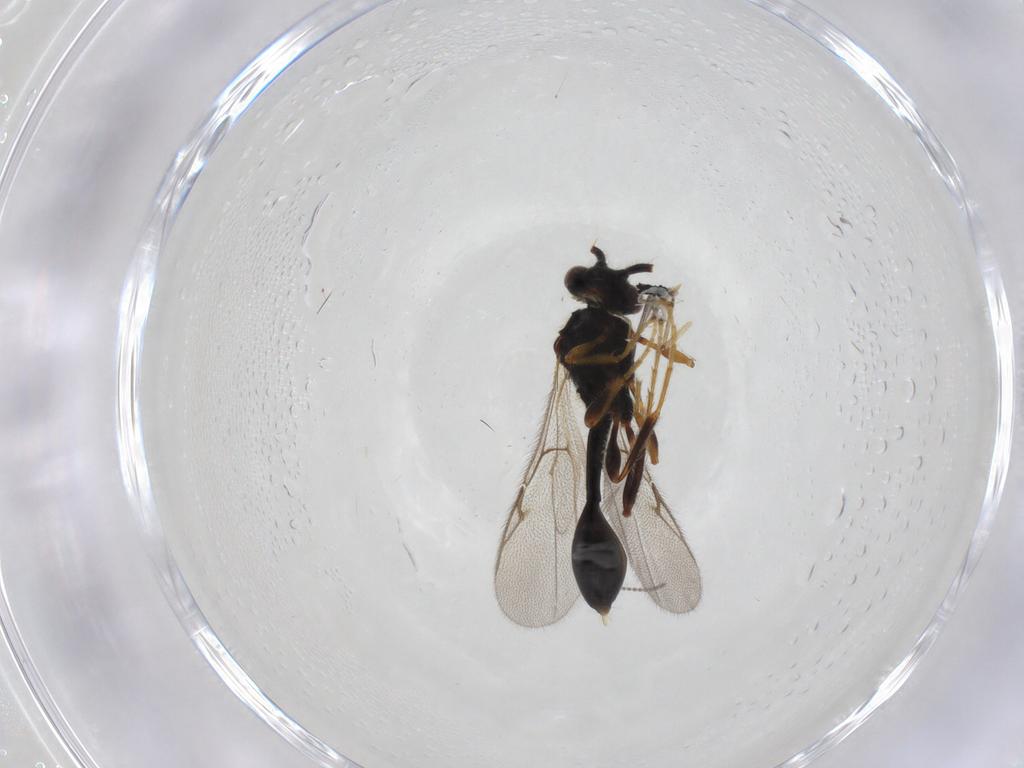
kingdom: Animalia
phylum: Arthropoda
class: Insecta
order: Hymenoptera
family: Diapriidae
